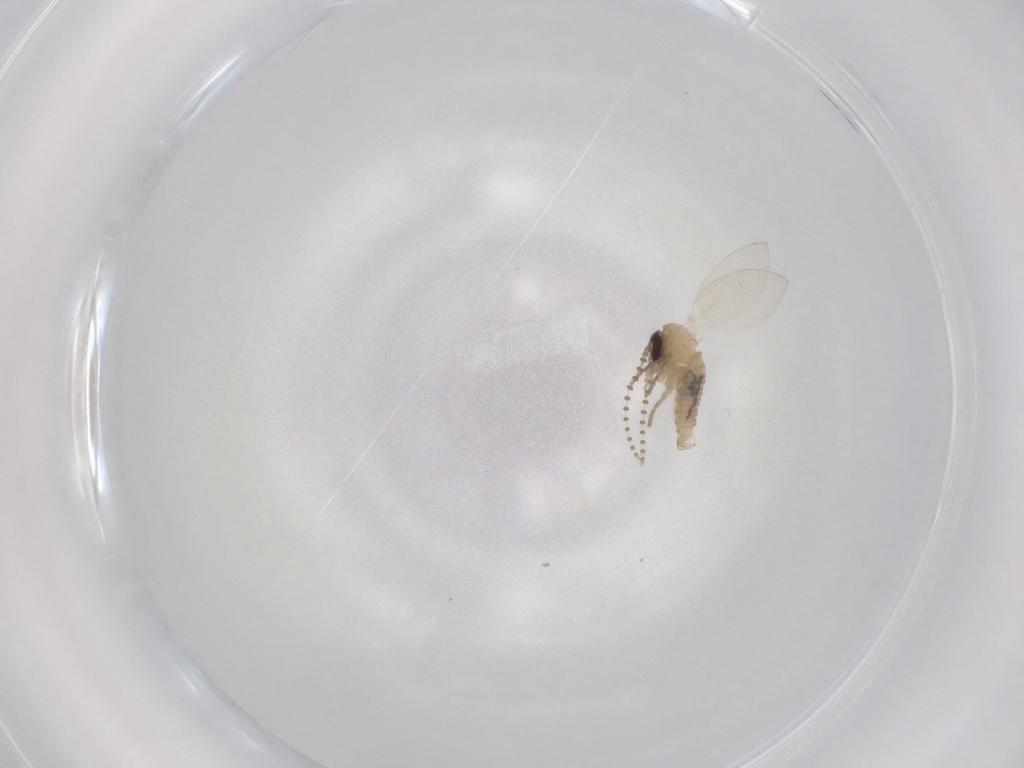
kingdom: Animalia
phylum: Arthropoda
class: Insecta
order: Diptera
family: Psychodidae
